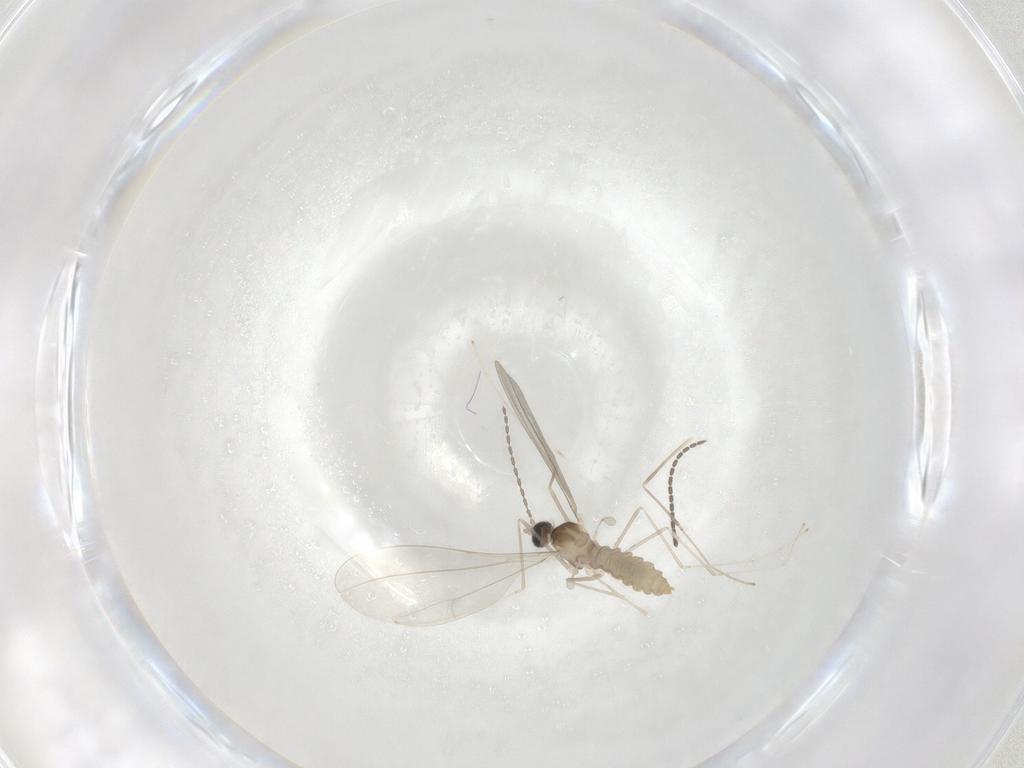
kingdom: Animalia
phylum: Arthropoda
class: Insecta
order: Diptera
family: Cecidomyiidae
